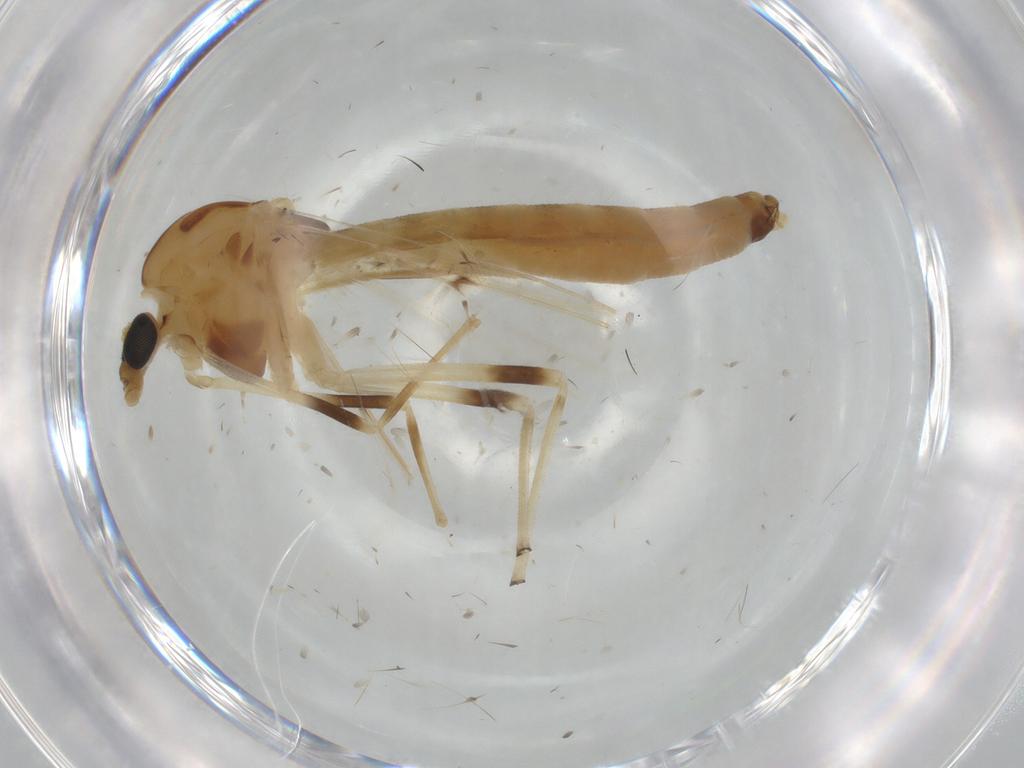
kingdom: Animalia
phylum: Arthropoda
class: Insecta
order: Diptera
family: Chironomidae
